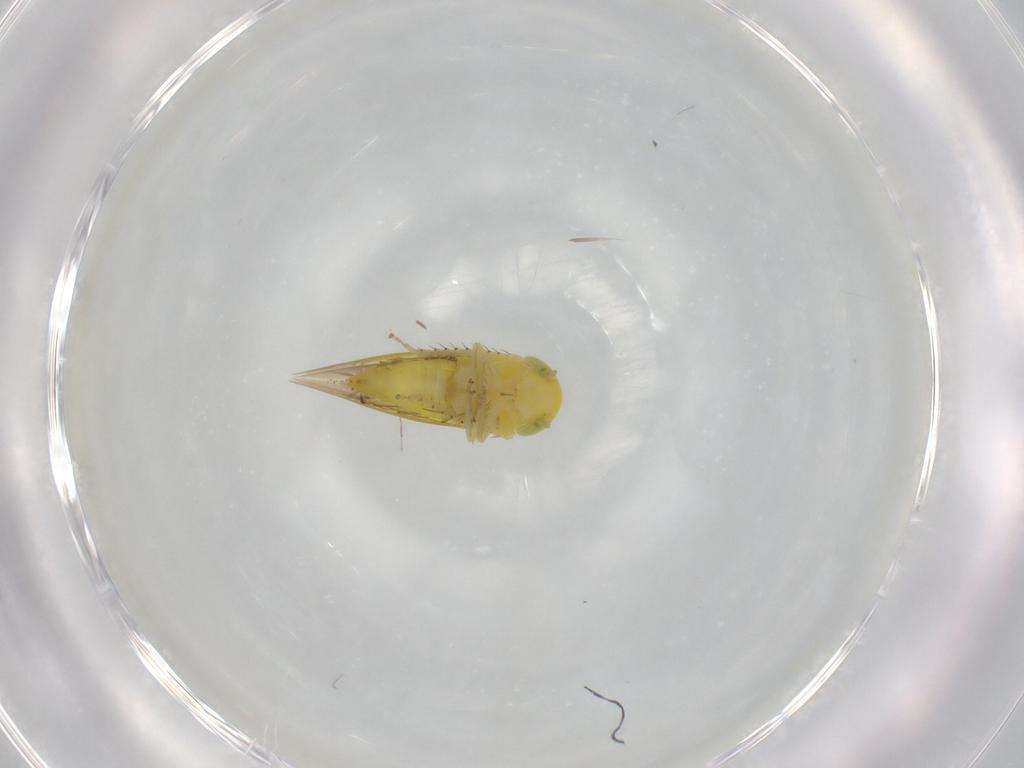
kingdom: Animalia
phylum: Arthropoda
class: Insecta
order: Hemiptera
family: Cicadellidae
